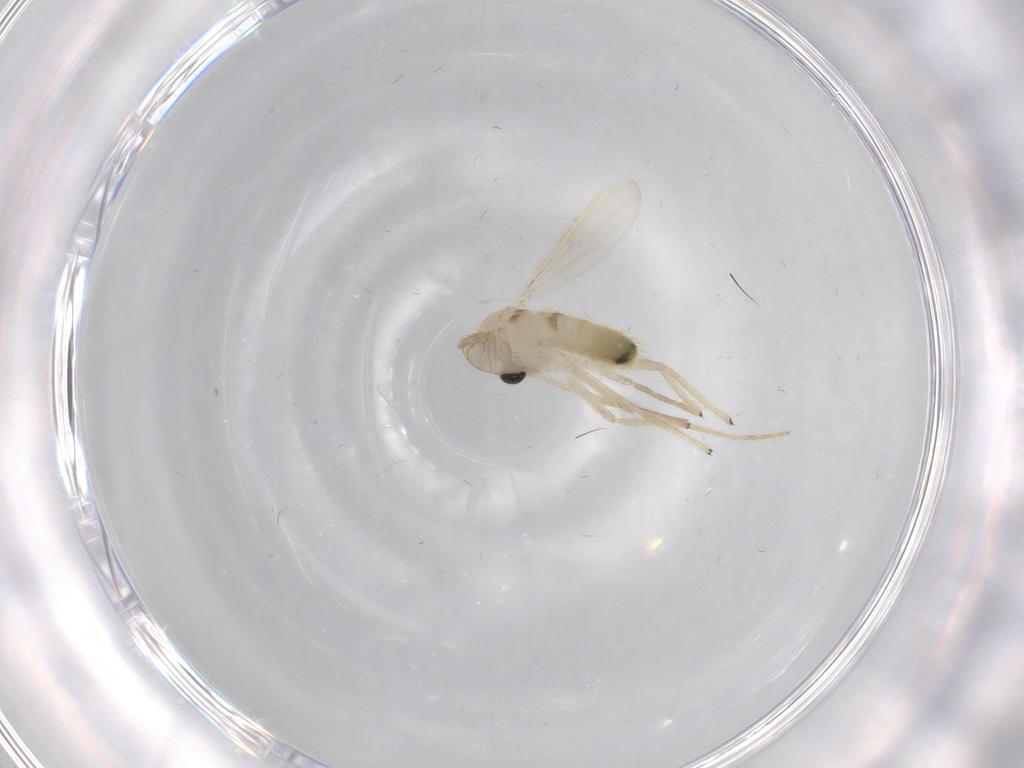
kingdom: Animalia
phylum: Arthropoda
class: Insecta
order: Diptera
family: Chironomidae
